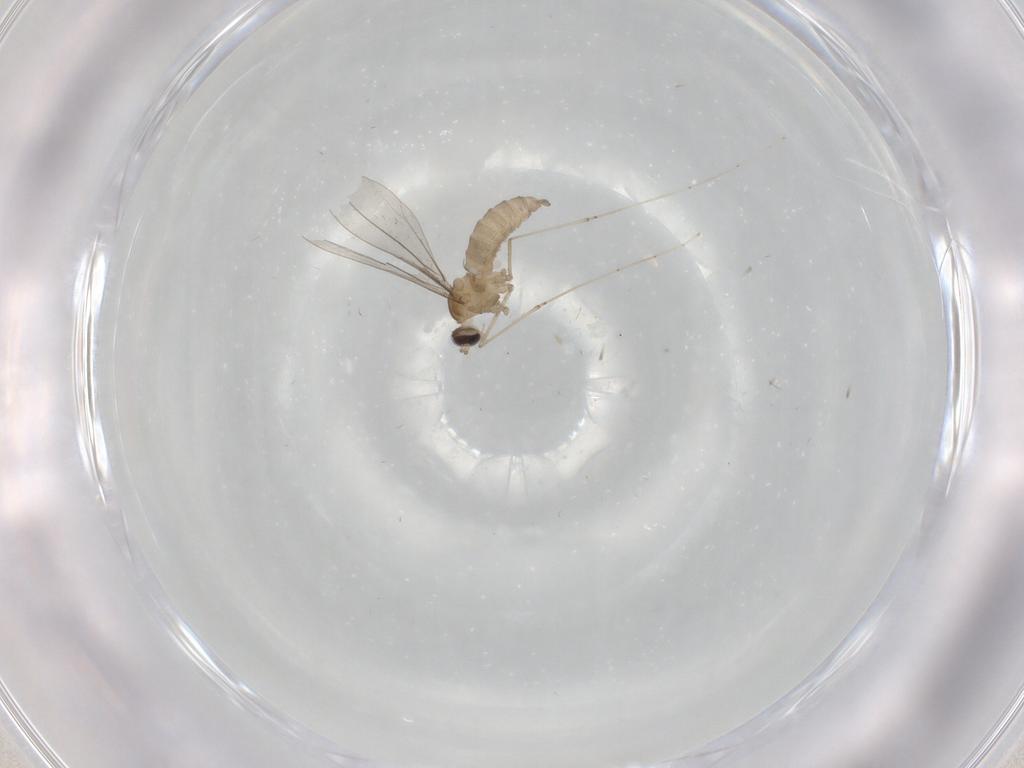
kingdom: Animalia
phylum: Arthropoda
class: Insecta
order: Diptera
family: Cecidomyiidae
